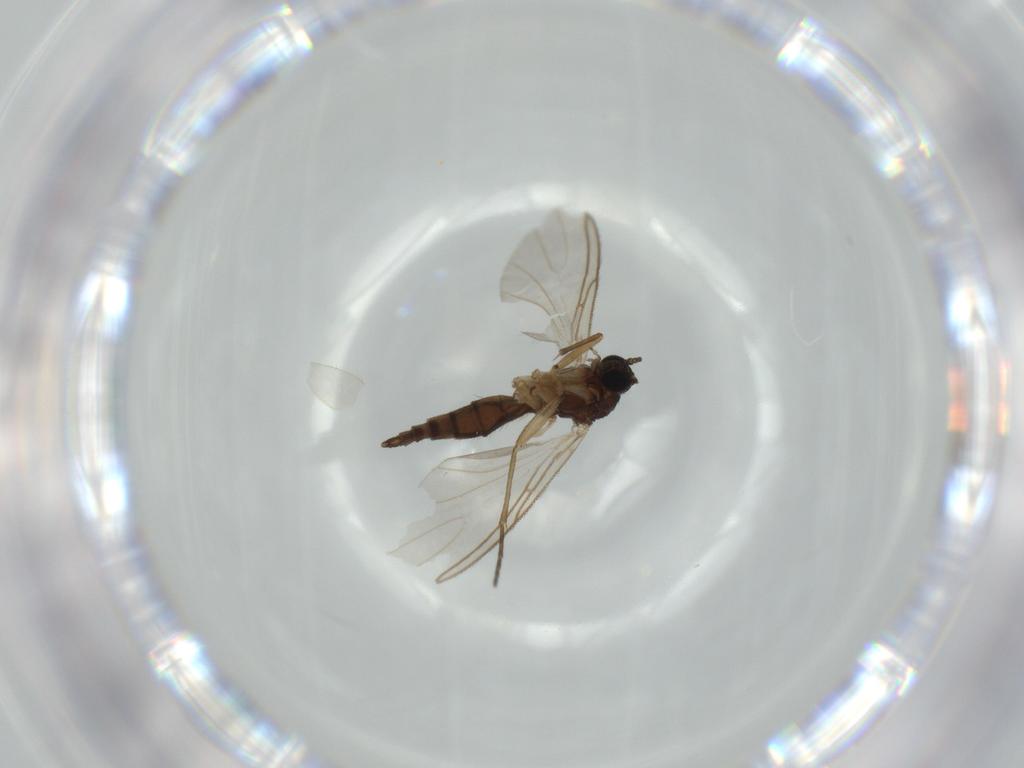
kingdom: Animalia
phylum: Arthropoda
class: Insecta
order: Diptera
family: Sciaridae
